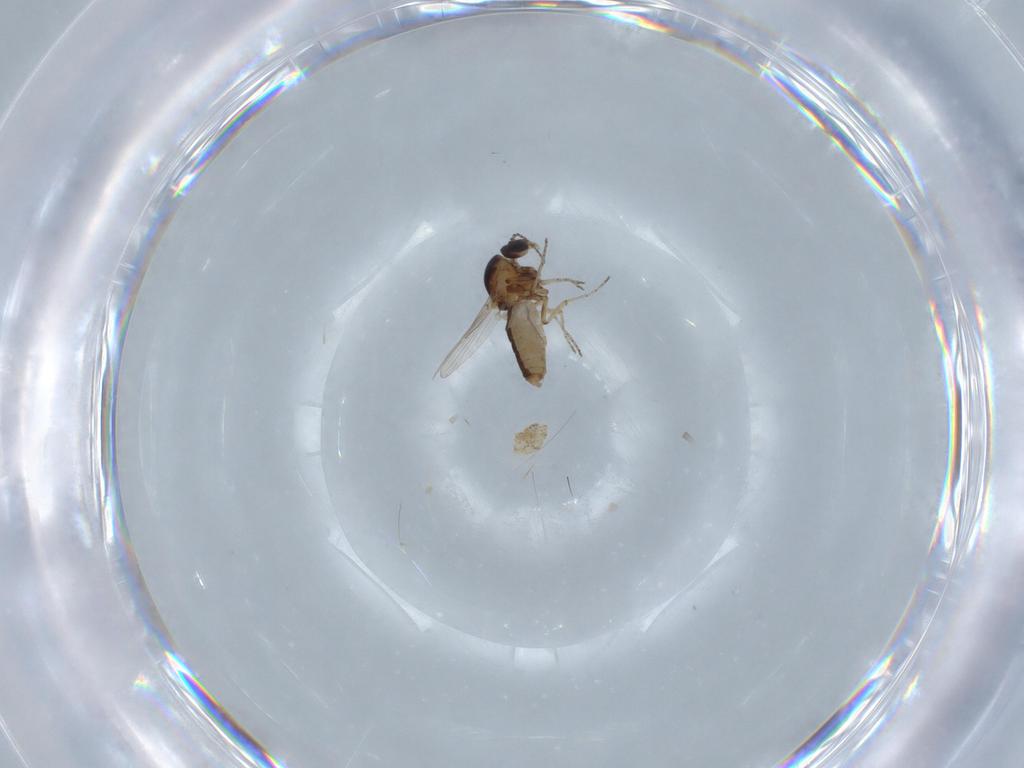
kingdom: Animalia
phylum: Arthropoda
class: Insecta
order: Diptera
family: Ceratopogonidae
